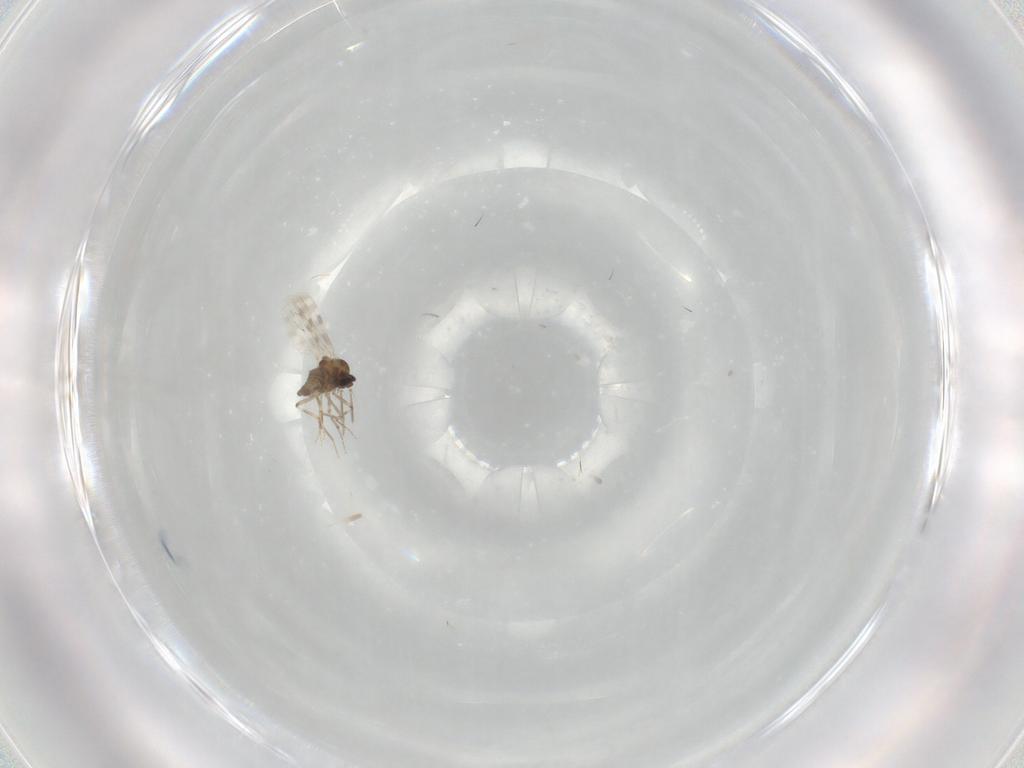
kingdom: Animalia
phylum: Arthropoda
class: Insecta
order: Diptera
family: Ceratopogonidae
